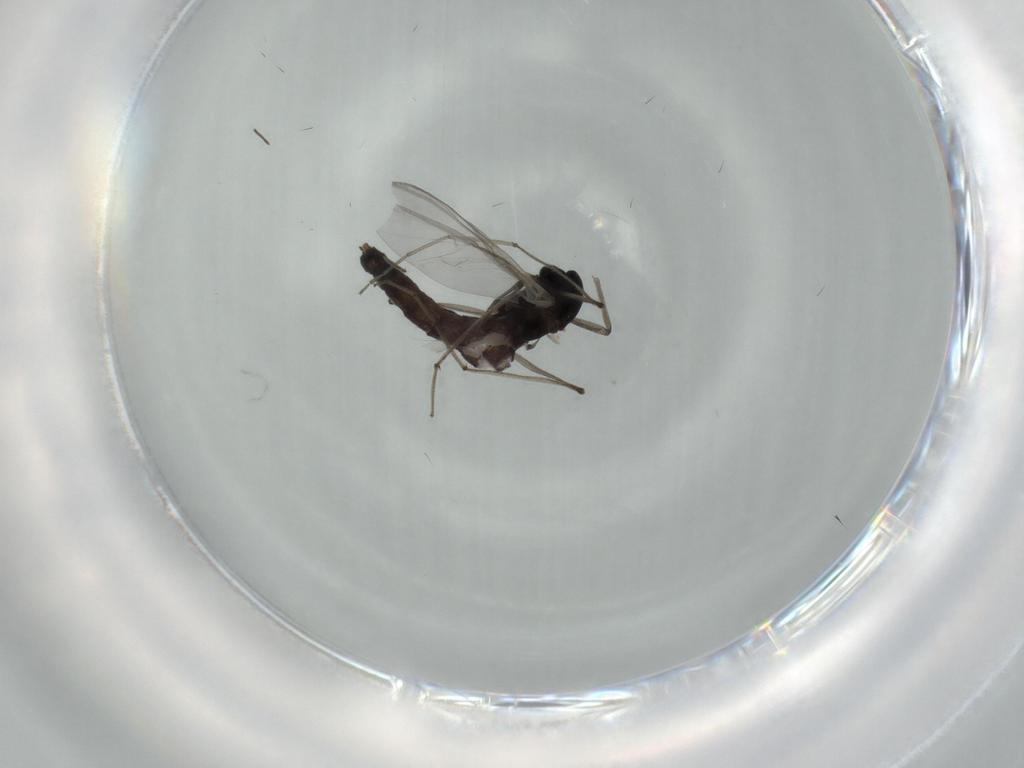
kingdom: Animalia
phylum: Arthropoda
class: Insecta
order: Diptera
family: Chironomidae
